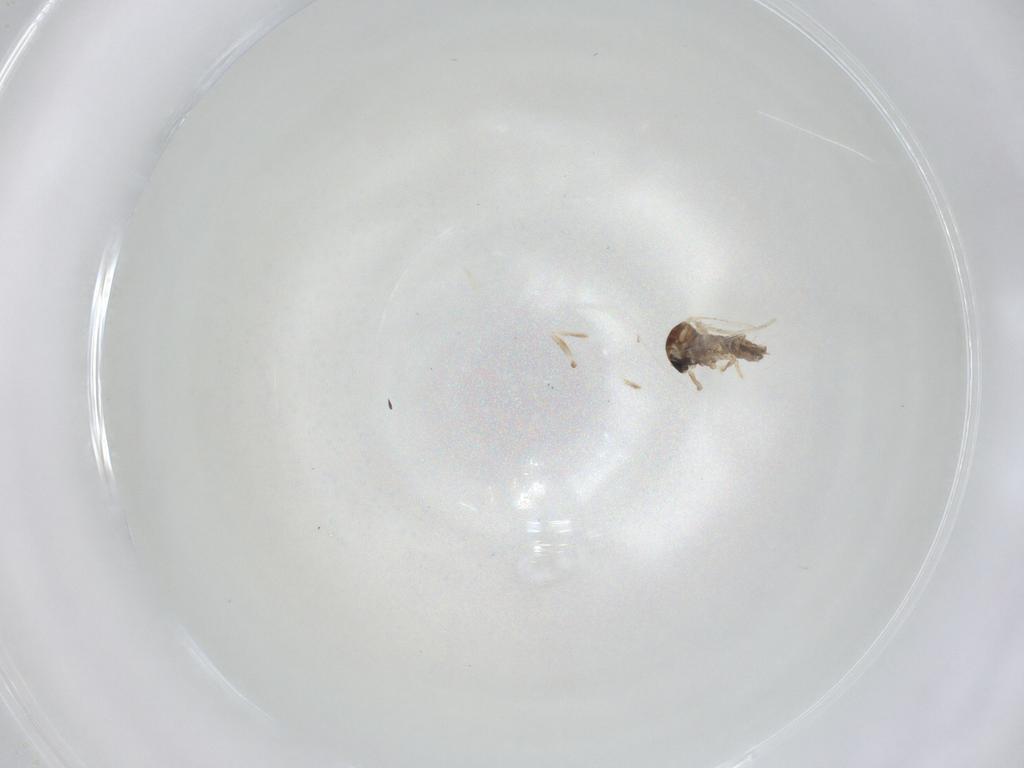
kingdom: Animalia
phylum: Arthropoda
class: Insecta
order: Diptera
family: Cecidomyiidae
